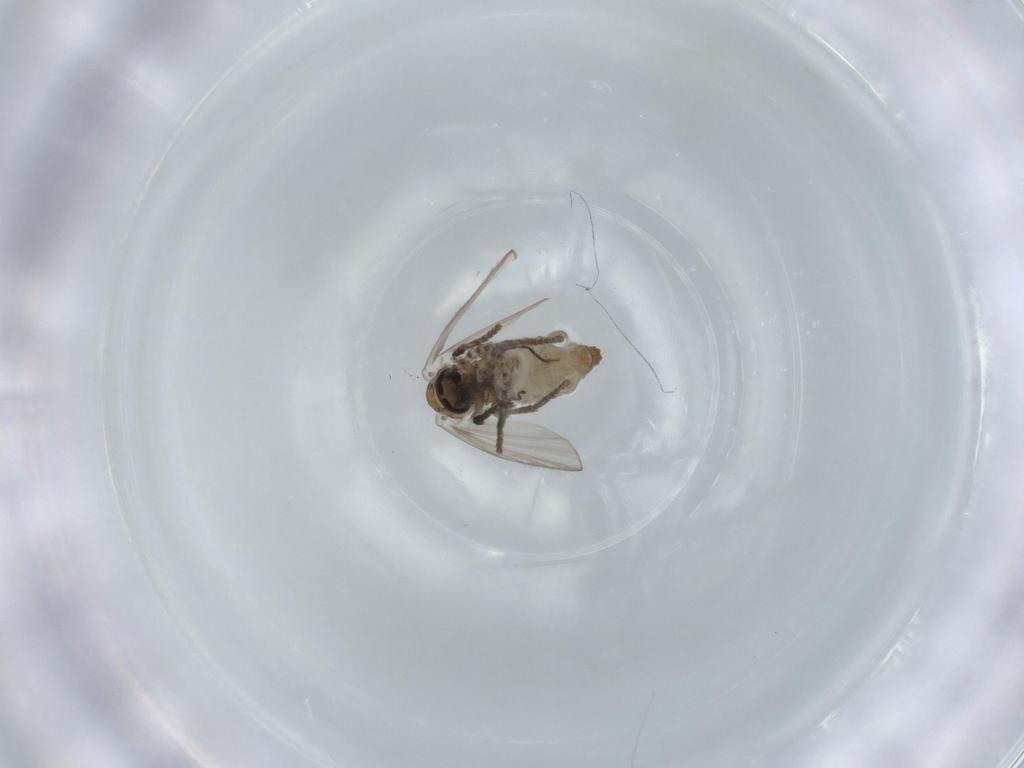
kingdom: Animalia
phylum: Arthropoda
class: Insecta
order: Diptera
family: Psychodidae
